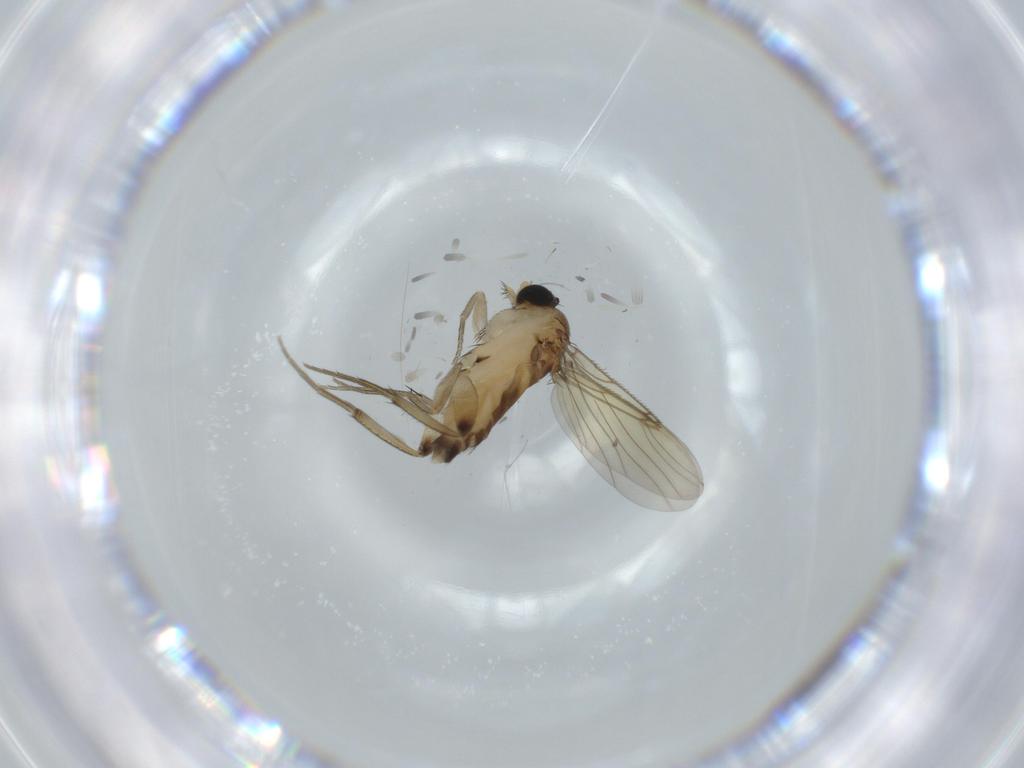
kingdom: Animalia
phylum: Arthropoda
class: Insecta
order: Diptera
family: Phoridae
